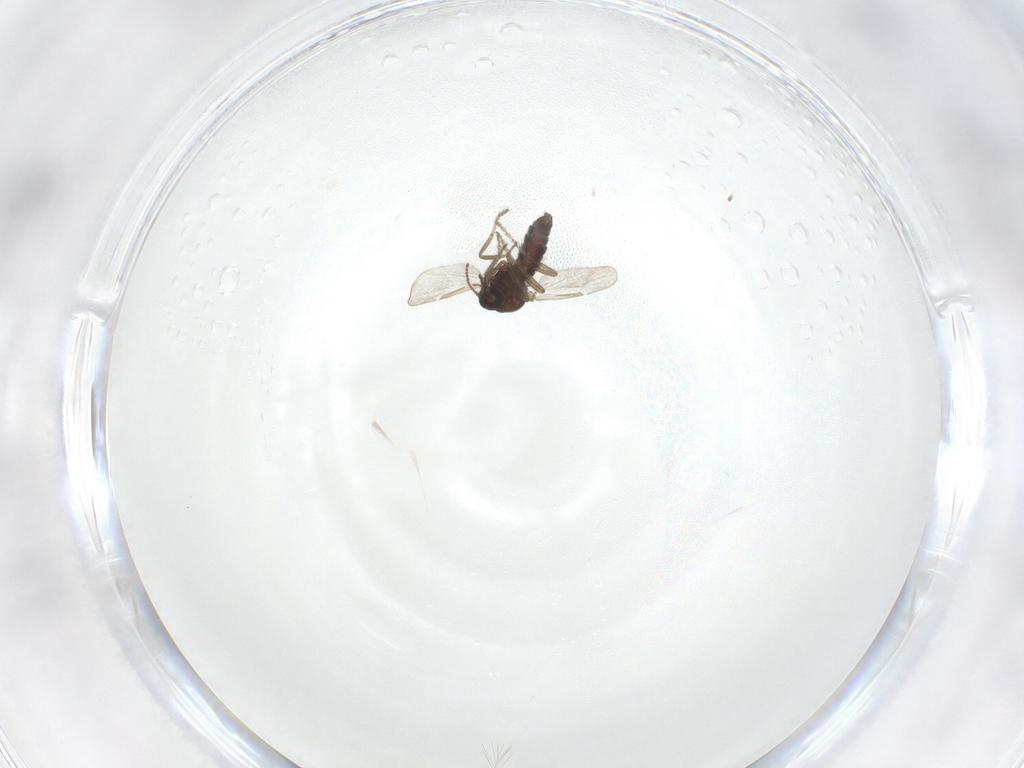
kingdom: Animalia
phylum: Arthropoda
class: Insecta
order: Diptera
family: Ceratopogonidae
